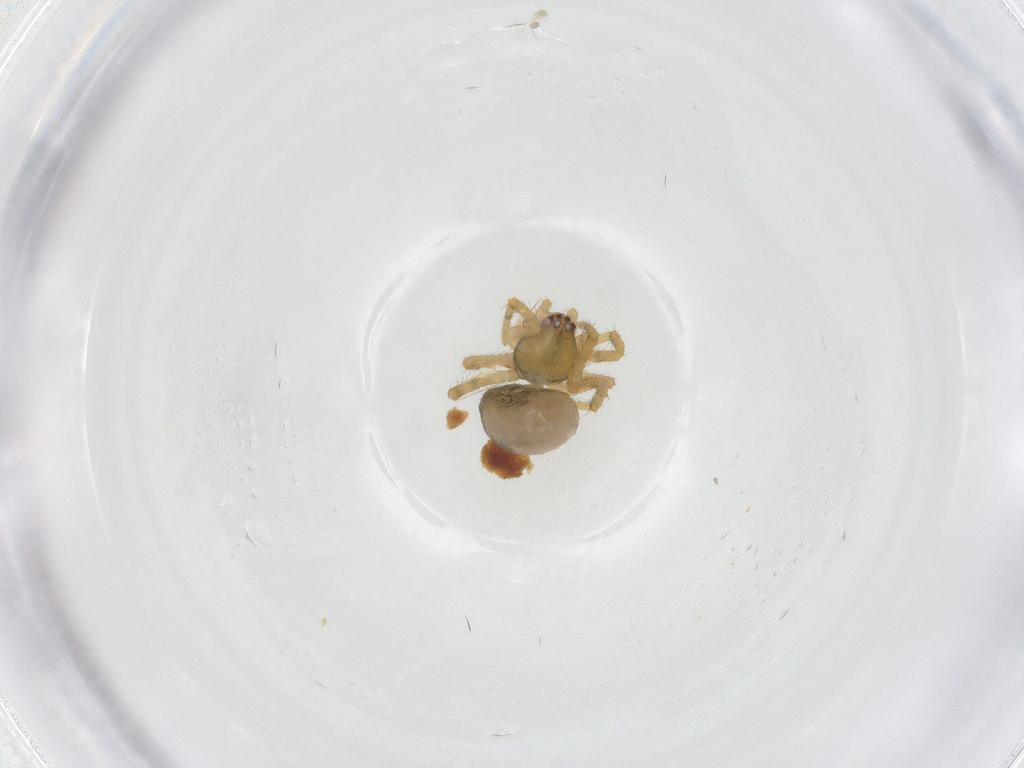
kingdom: Animalia
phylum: Arthropoda
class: Arachnida
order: Araneae
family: Theridiidae
